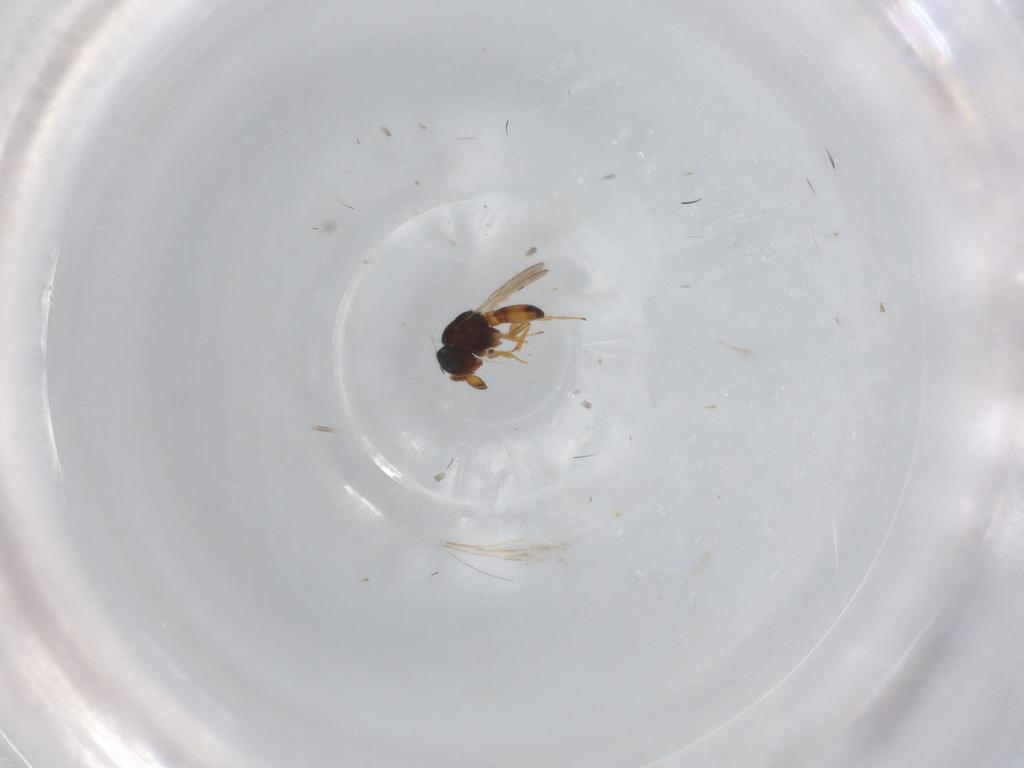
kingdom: Animalia
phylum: Arthropoda
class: Insecta
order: Hymenoptera
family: Scelionidae
